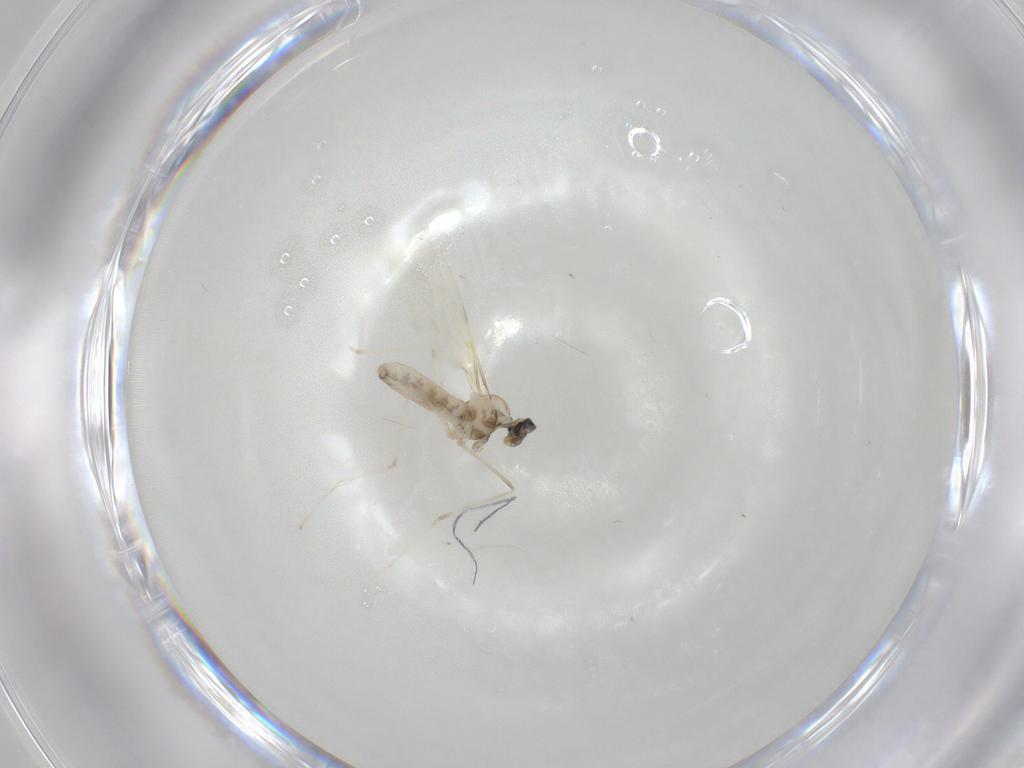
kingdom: Animalia
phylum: Arthropoda
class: Insecta
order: Diptera
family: Cecidomyiidae
